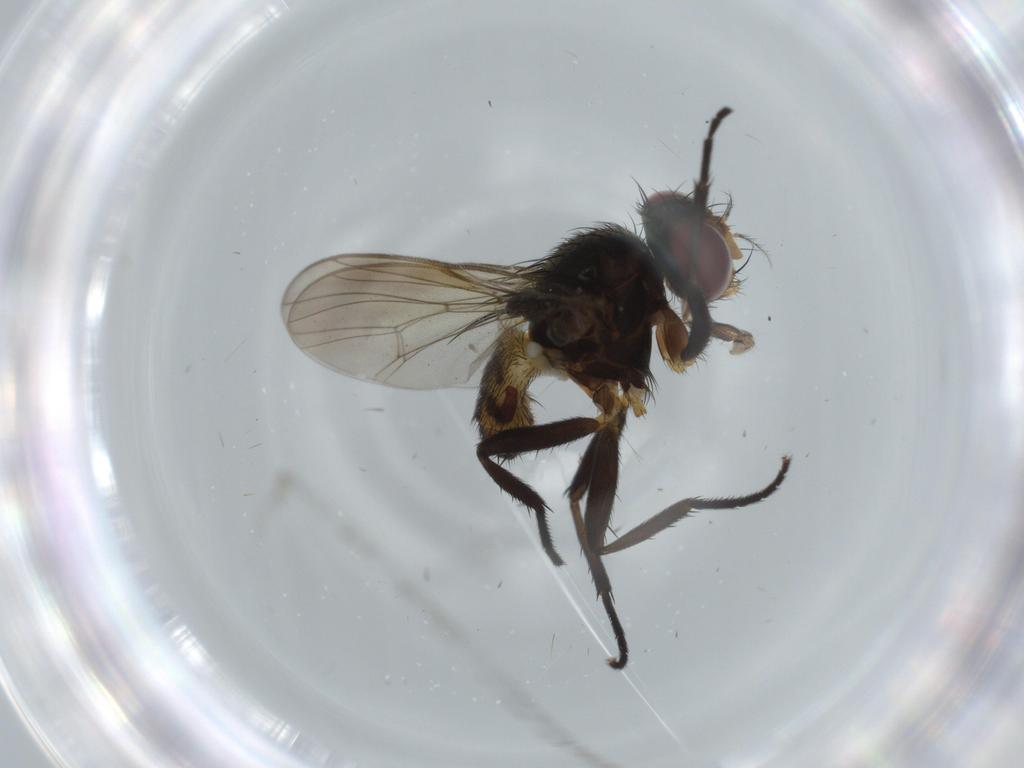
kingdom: Animalia
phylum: Arthropoda
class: Insecta
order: Diptera
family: Anthomyiidae
